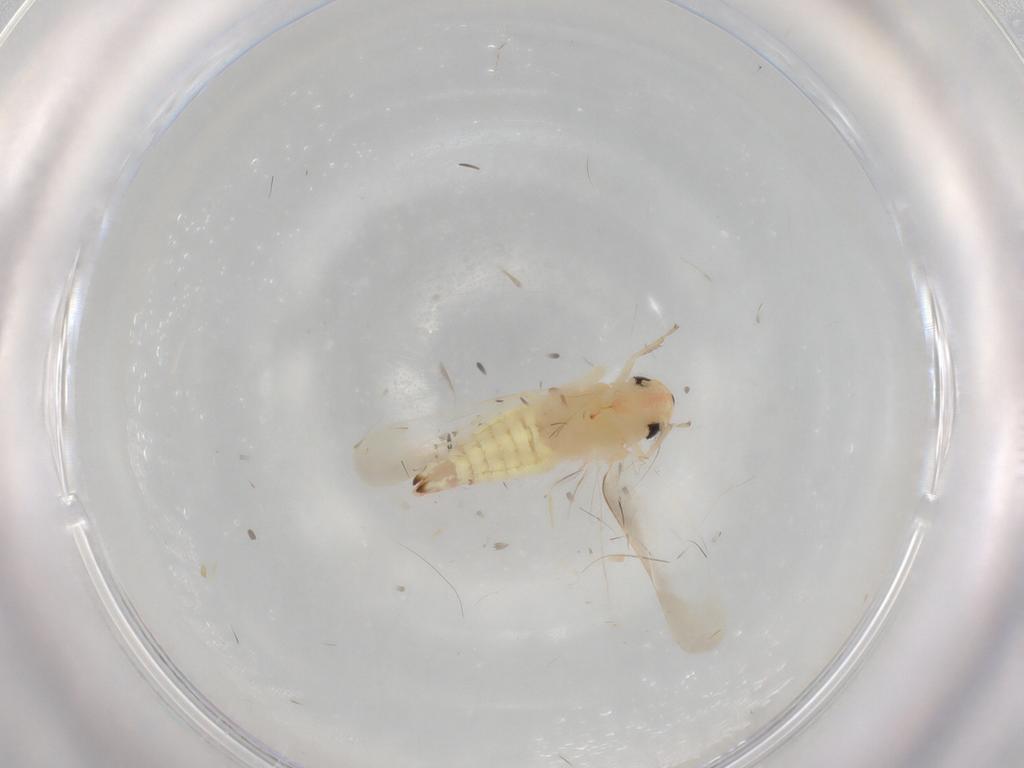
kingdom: Animalia
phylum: Arthropoda
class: Insecta
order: Hemiptera
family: Cicadellidae
